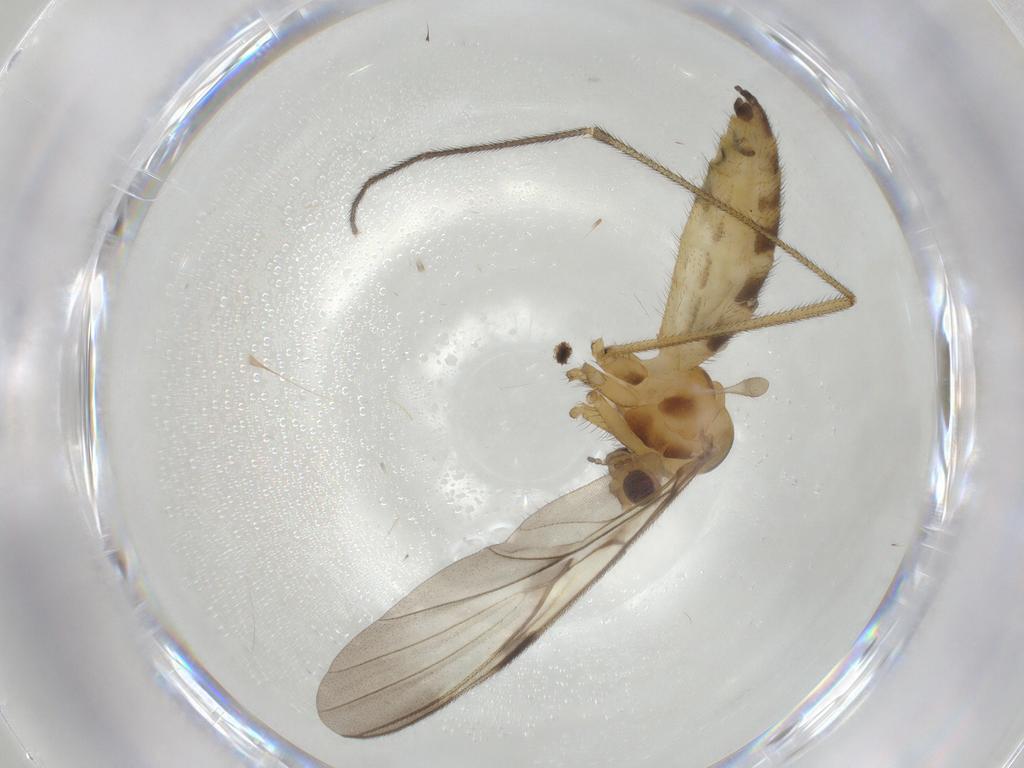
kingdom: Animalia
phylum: Arthropoda
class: Insecta
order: Diptera
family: Keroplatidae
